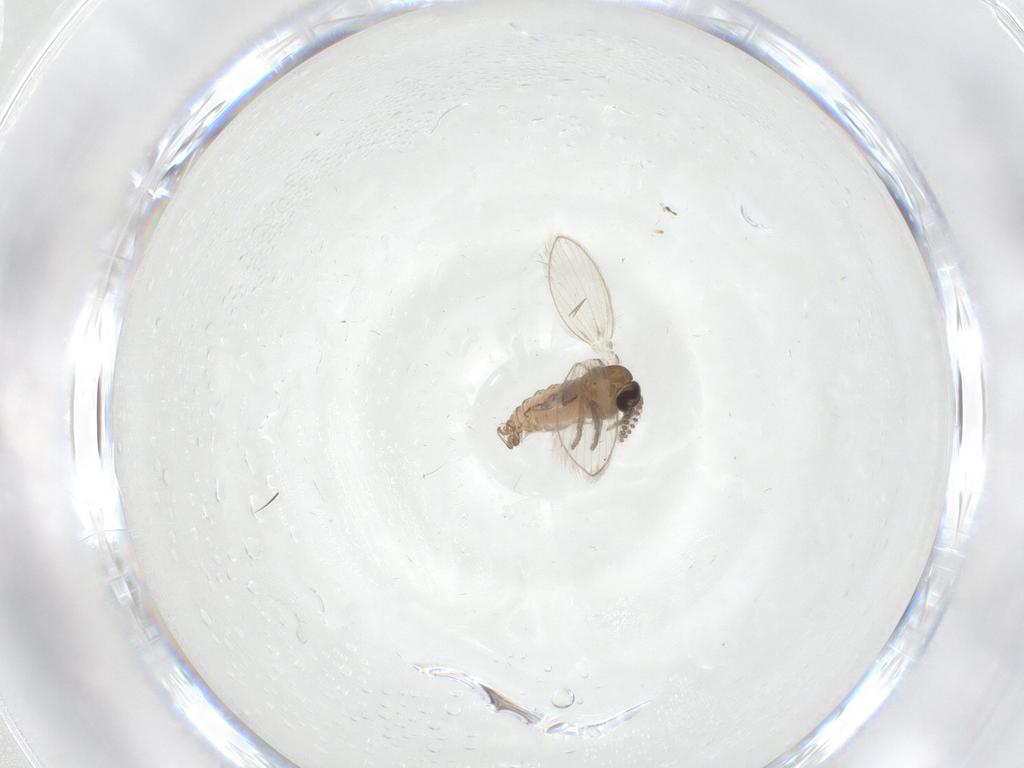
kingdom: Animalia
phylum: Arthropoda
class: Insecta
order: Diptera
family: Psychodidae
